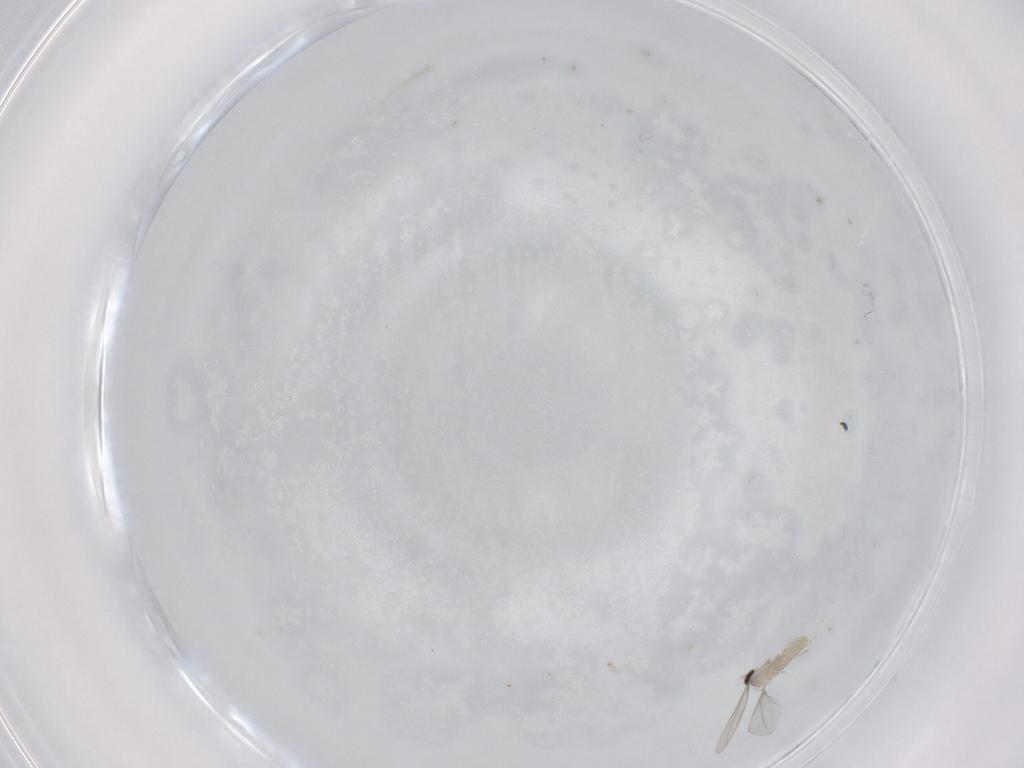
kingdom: Animalia
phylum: Arthropoda
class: Insecta
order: Diptera
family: Cecidomyiidae
